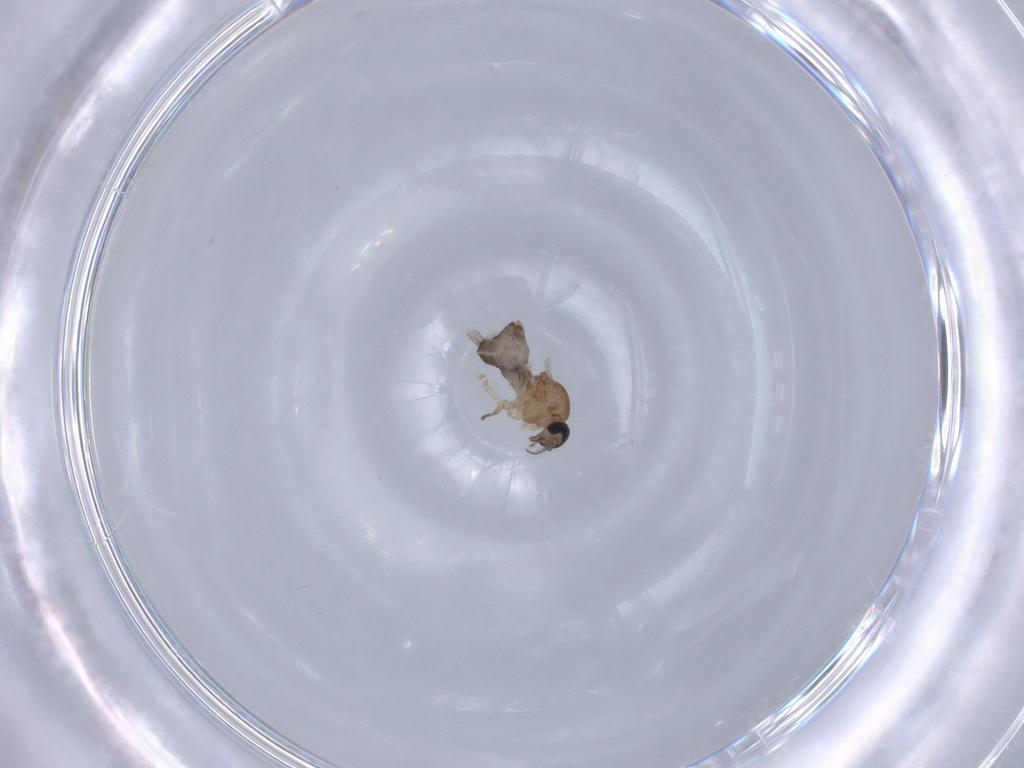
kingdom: Animalia
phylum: Arthropoda
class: Insecta
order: Diptera
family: Ceratopogonidae
